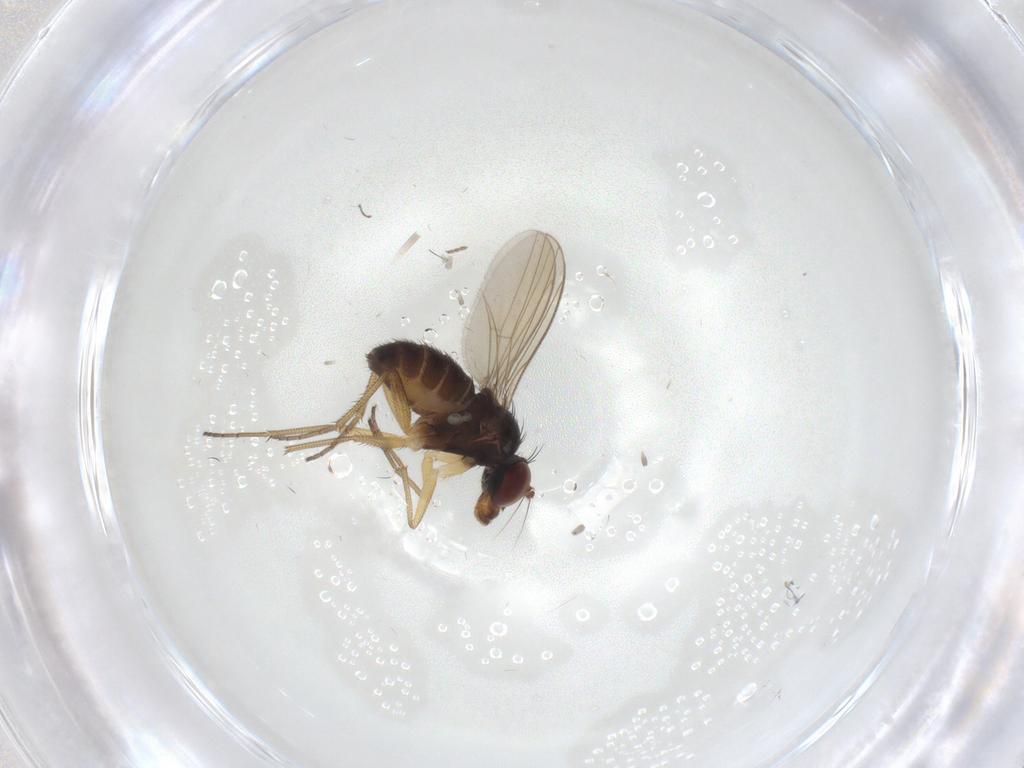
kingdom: Animalia
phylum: Arthropoda
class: Insecta
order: Diptera
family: Dolichopodidae
